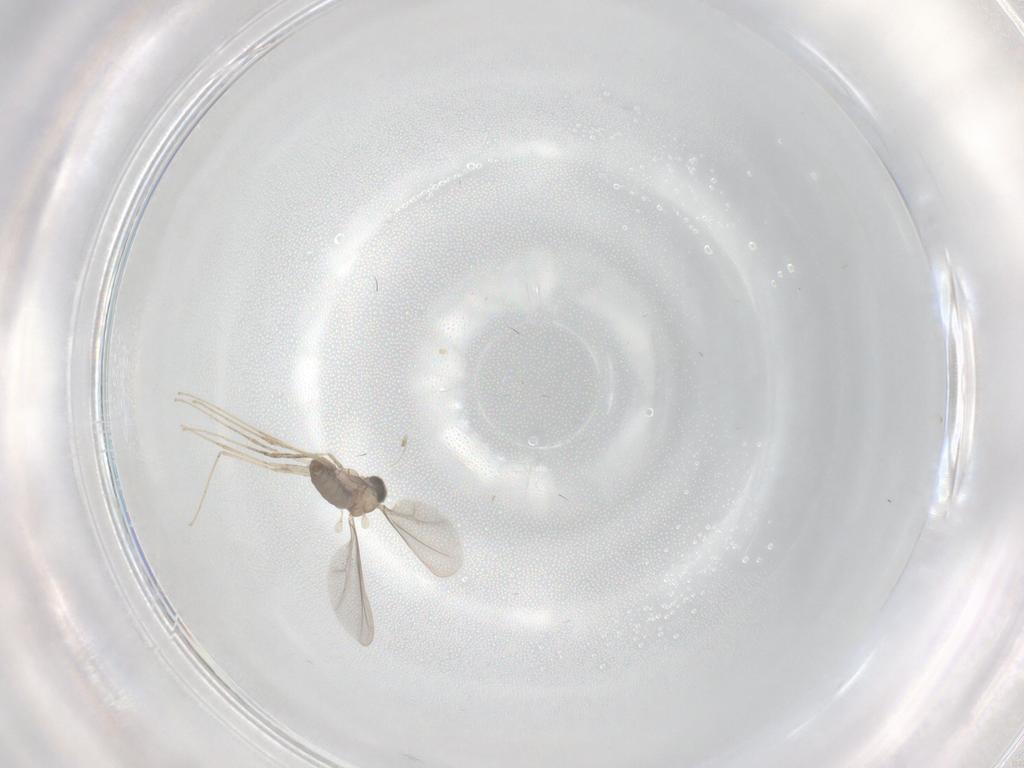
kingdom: Animalia
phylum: Arthropoda
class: Insecta
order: Diptera
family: Cecidomyiidae
